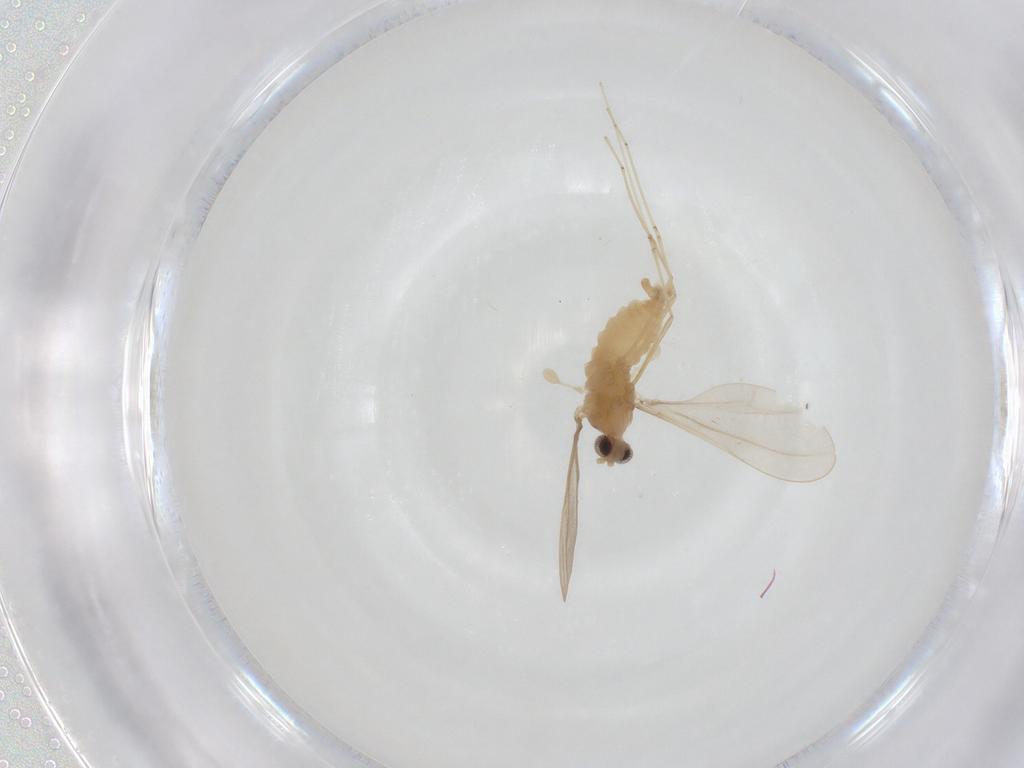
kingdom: Animalia
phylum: Arthropoda
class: Insecta
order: Diptera
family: Cecidomyiidae
